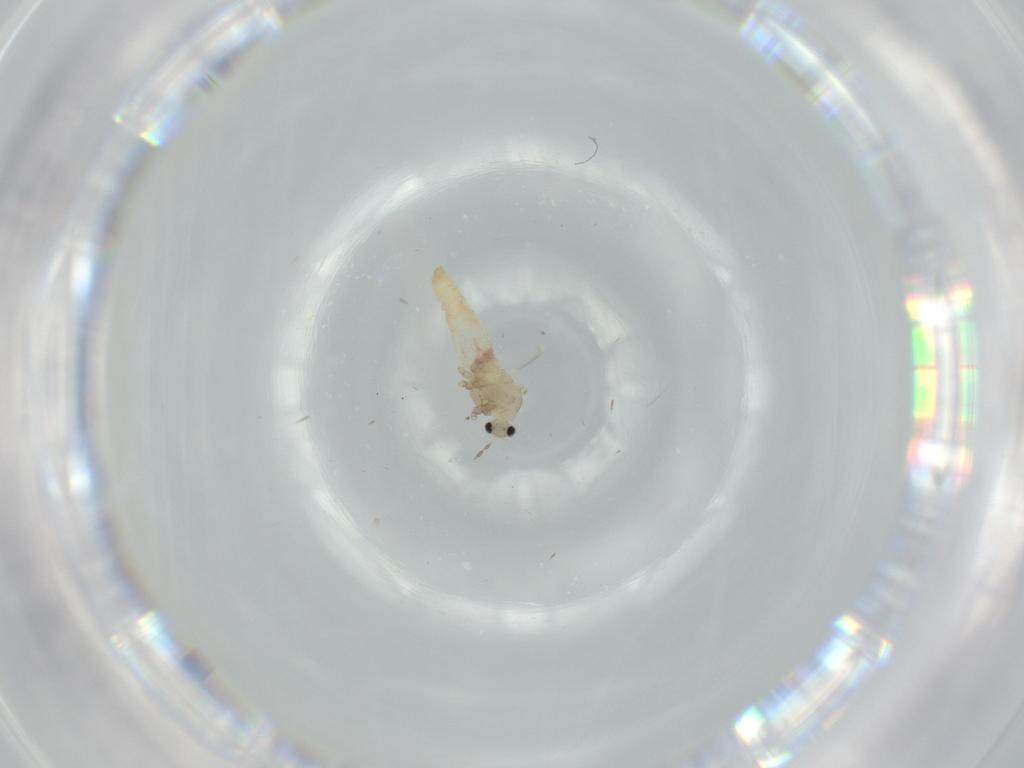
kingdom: Animalia
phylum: Arthropoda
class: Insecta
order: Diptera
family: Cecidomyiidae
